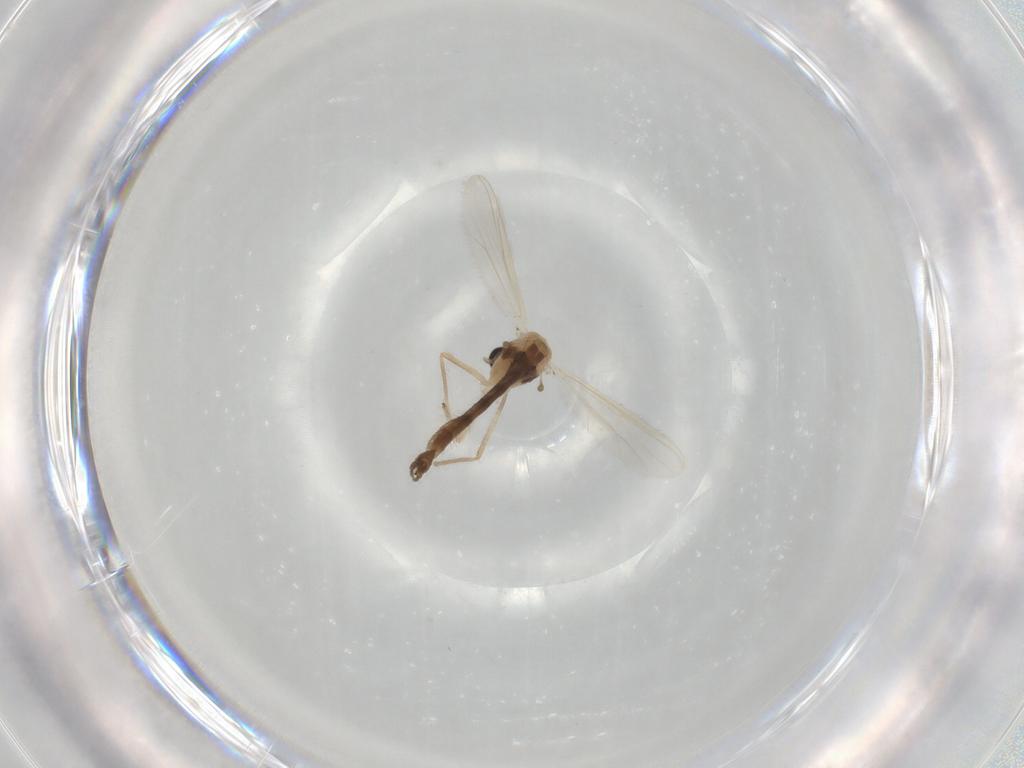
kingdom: Animalia
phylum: Arthropoda
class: Insecta
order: Diptera
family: Chironomidae
